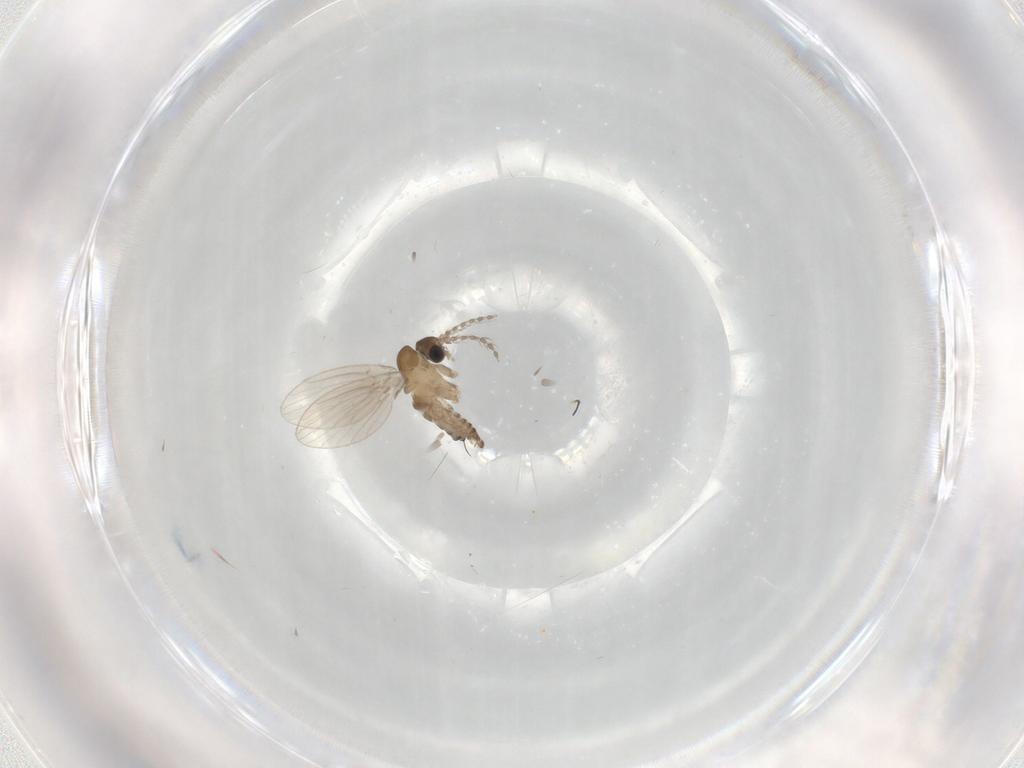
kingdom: Animalia
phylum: Arthropoda
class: Insecta
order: Diptera
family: Psychodidae
